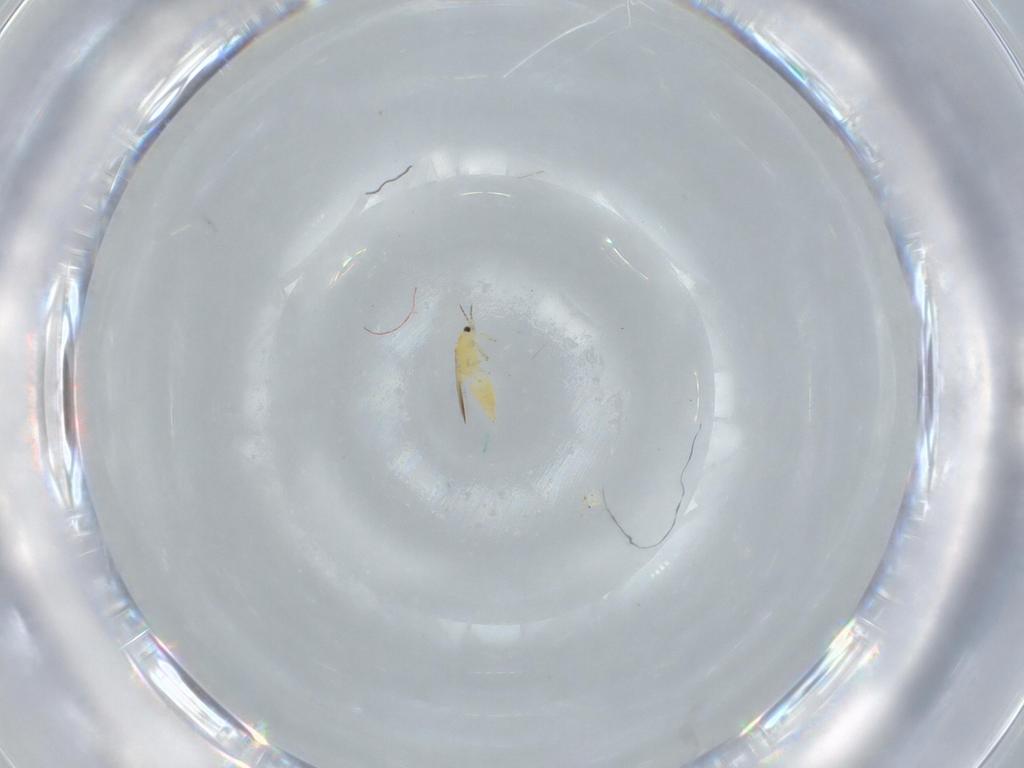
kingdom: Animalia
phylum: Arthropoda
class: Insecta
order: Thysanoptera
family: Thripidae
